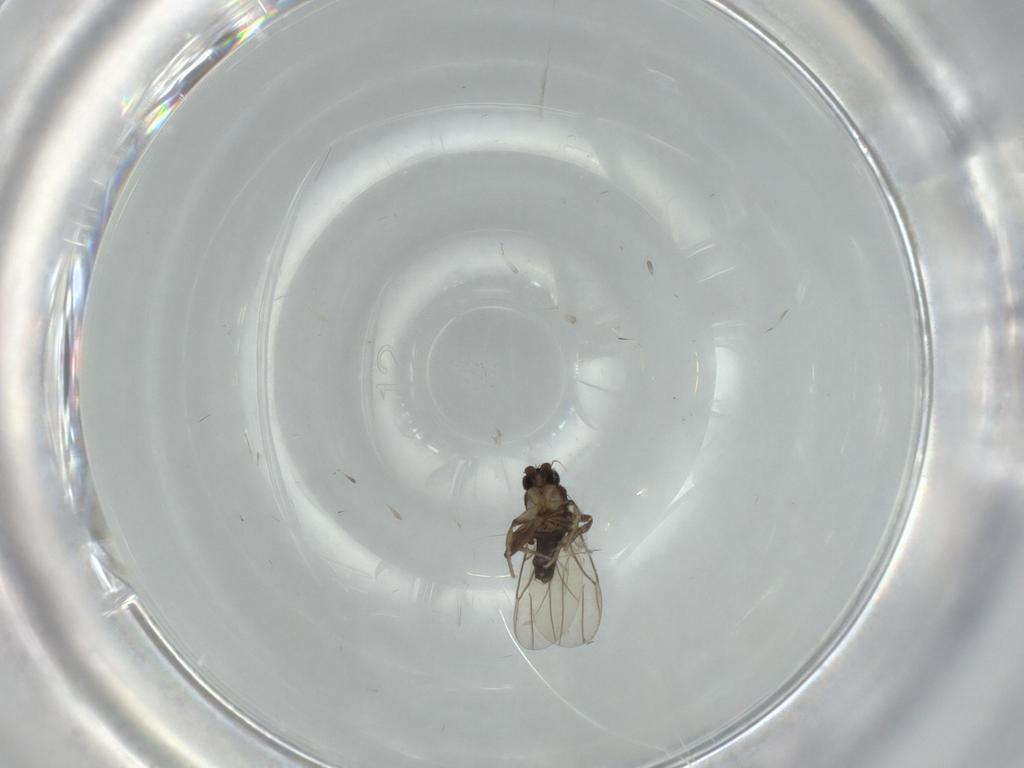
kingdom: Animalia
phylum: Arthropoda
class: Insecta
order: Diptera
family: Phoridae
